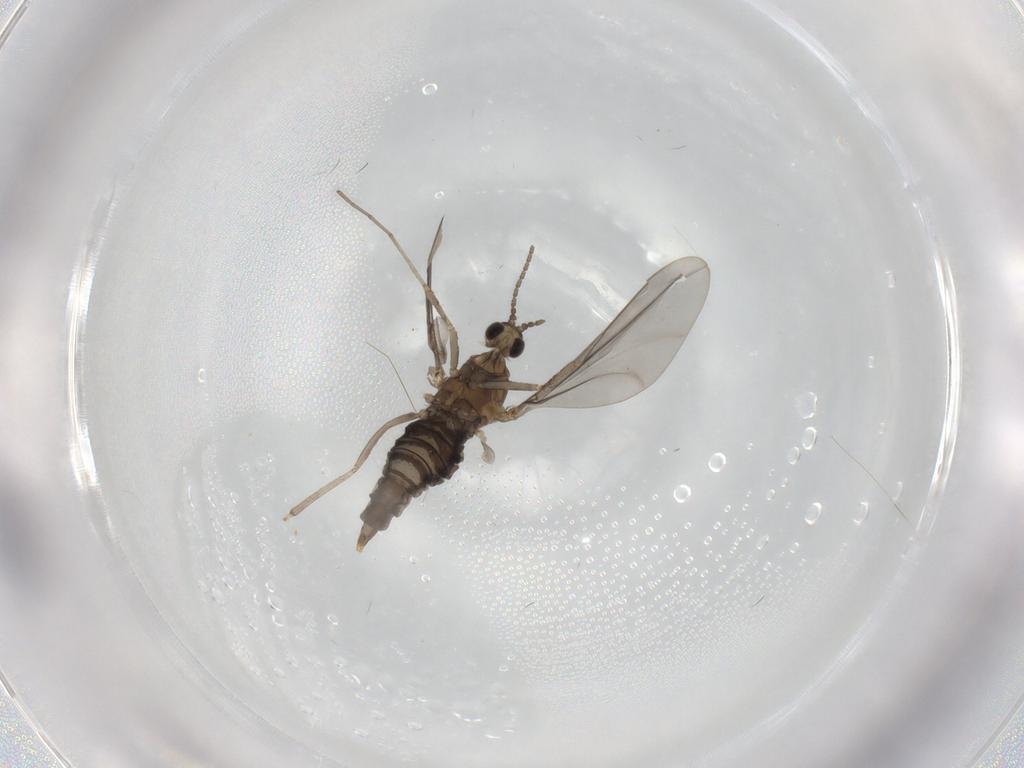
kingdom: Animalia
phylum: Arthropoda
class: Insecta
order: Diptera
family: Cecidomyiidae
